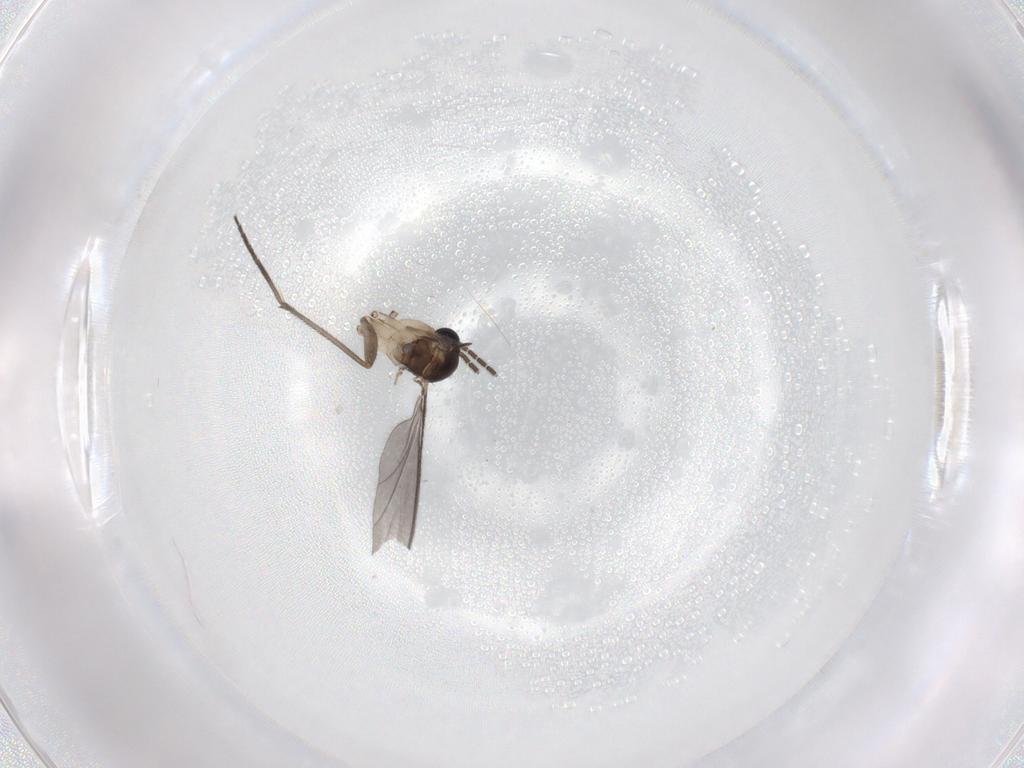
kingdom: Animalia
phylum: Arthropoda
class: Insecta
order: Diptera
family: Sciaridae
